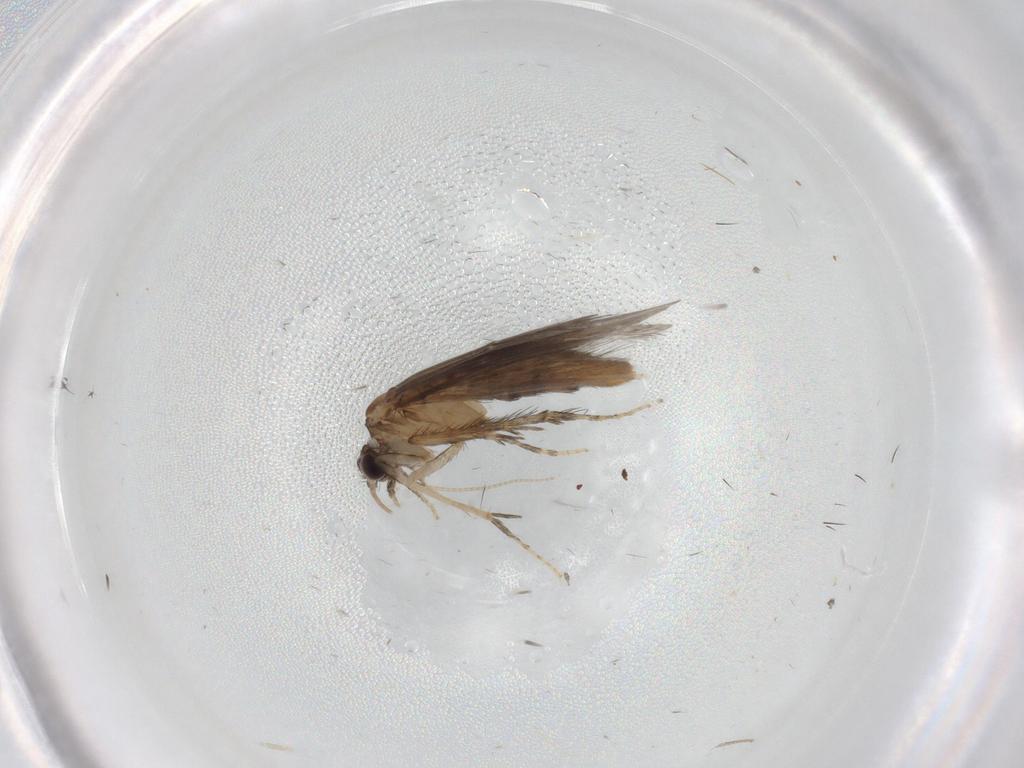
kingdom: Animalia
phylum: Arthropoda
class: Insecta
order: Trichoptera
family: Hydroptilidae
